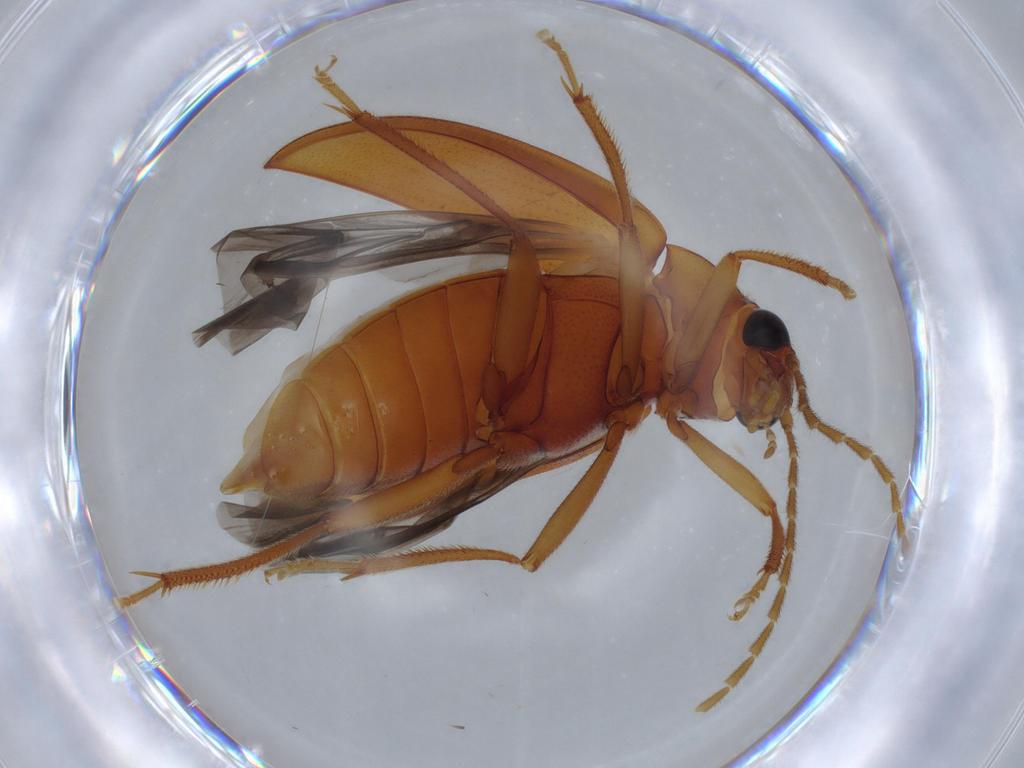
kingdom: Animalia
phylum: Arthropoda
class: Insecta
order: Coleoptera
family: Ptilodactylidae
